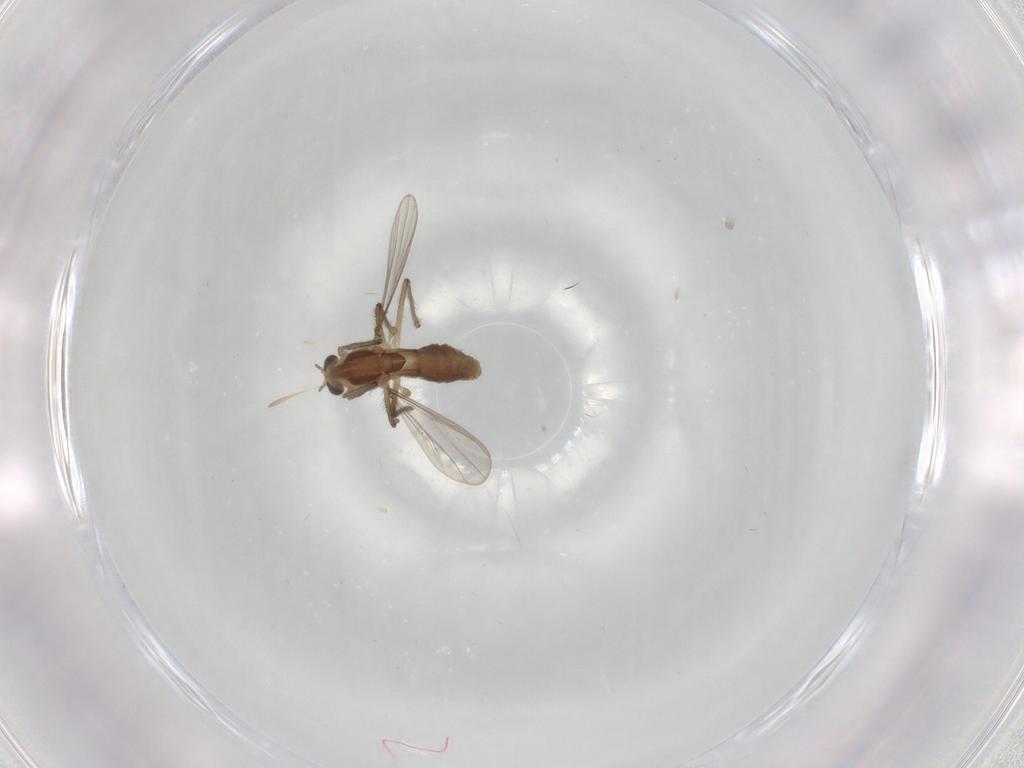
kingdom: Animalia
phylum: Arthropoda
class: Insecta
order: Diptera
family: Chironomidae
